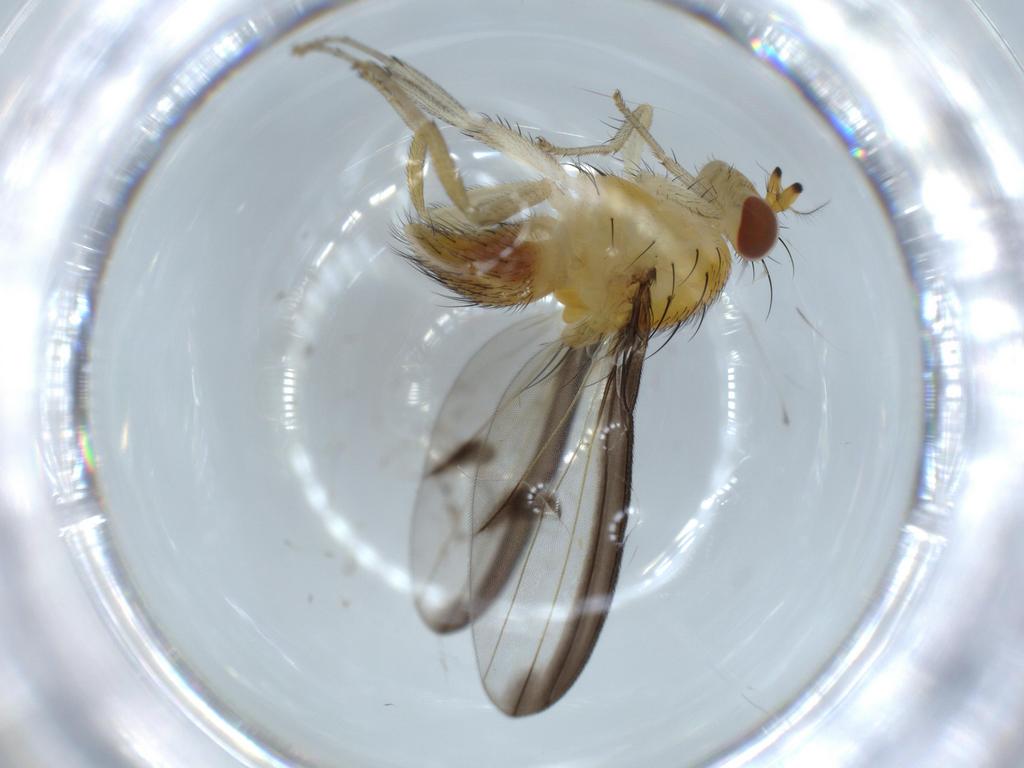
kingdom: Animalia
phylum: Arthropoda
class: Insecta
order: Diptera
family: Lauxaniidae
